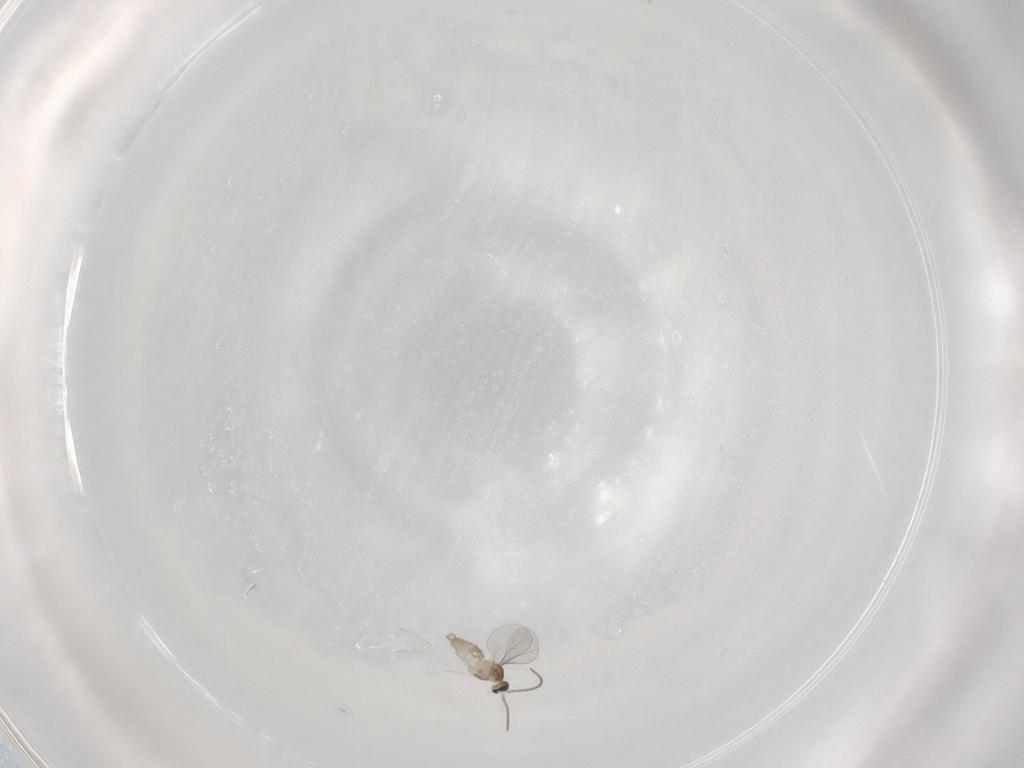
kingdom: Animalia
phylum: Arthropoda
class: Insecta
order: Diptera
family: Cecidomyiidae
